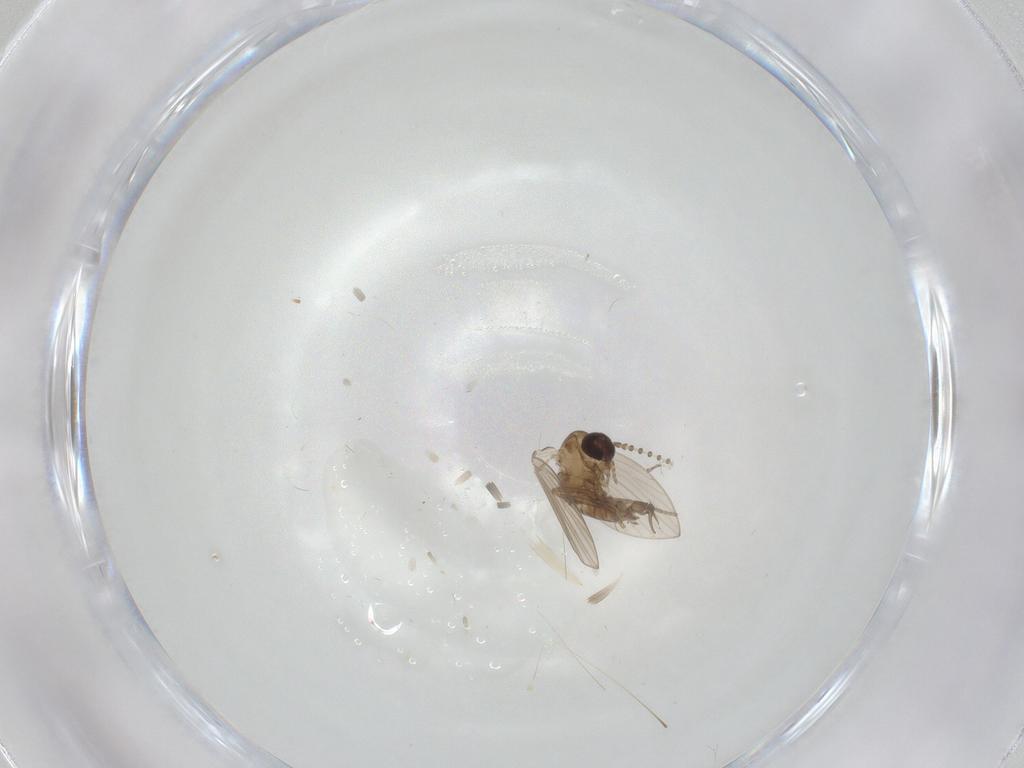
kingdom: Animalia
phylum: Arthropoda
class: Insecta
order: Diptera
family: Psychodidae
